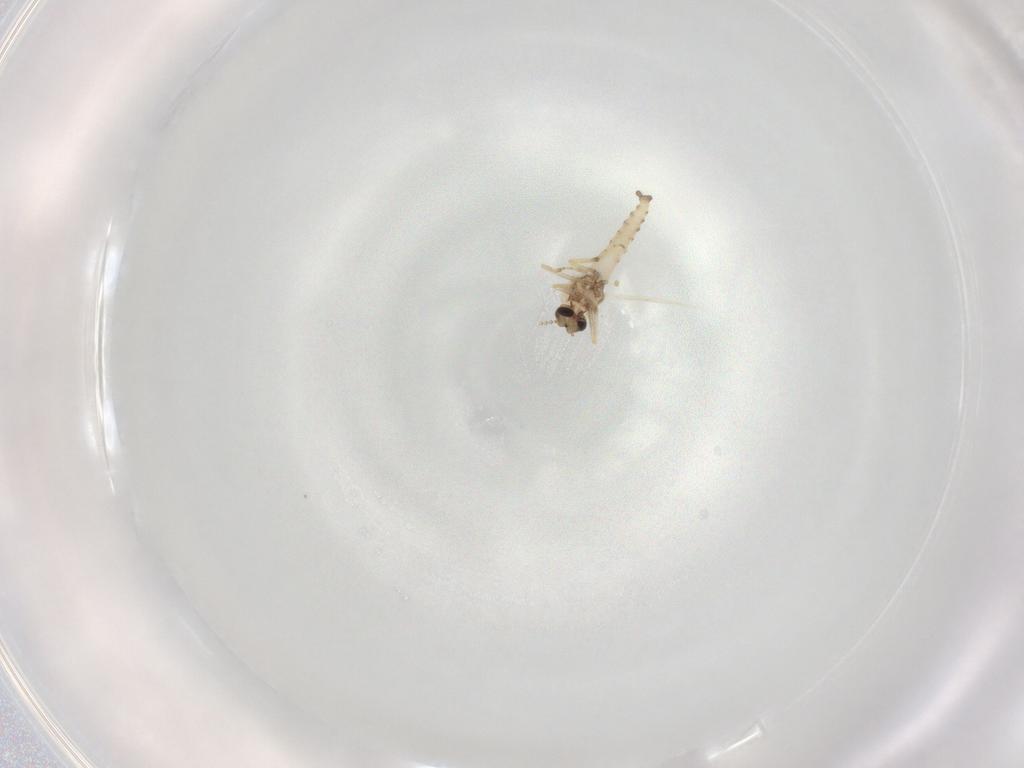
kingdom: Animalia
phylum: Arthropoda
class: Insecta
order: Diptera
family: Ceratopogonidae
